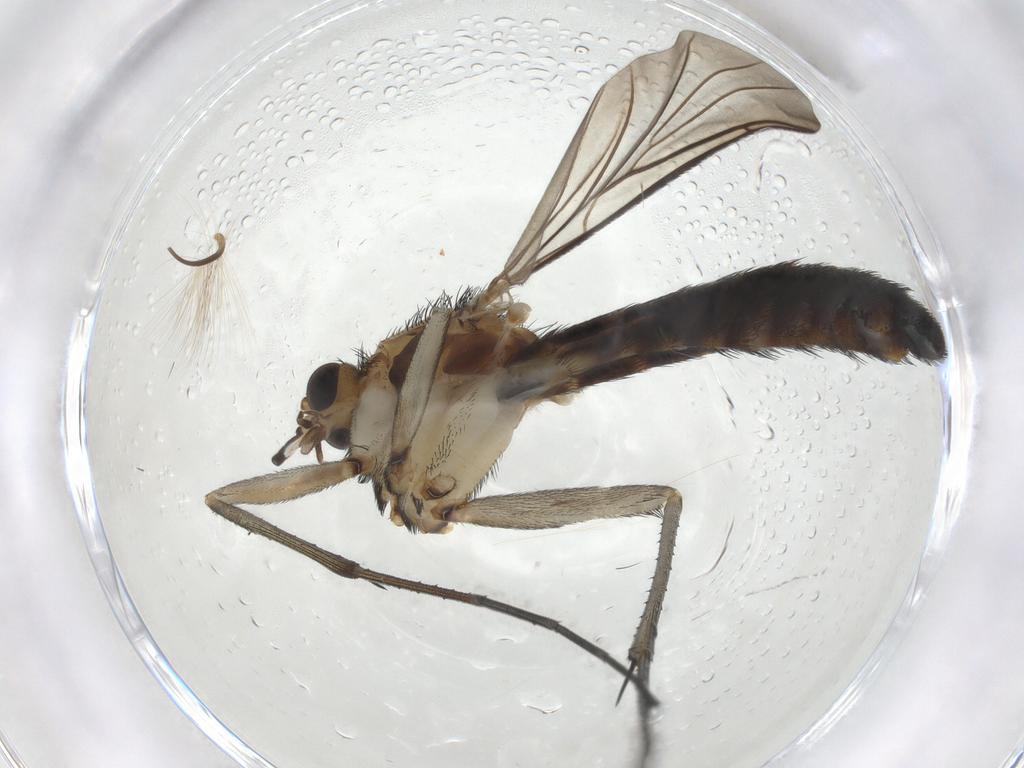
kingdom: Animalia
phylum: Arthropoda
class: Insecta
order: Diptera
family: Keroplatidae
